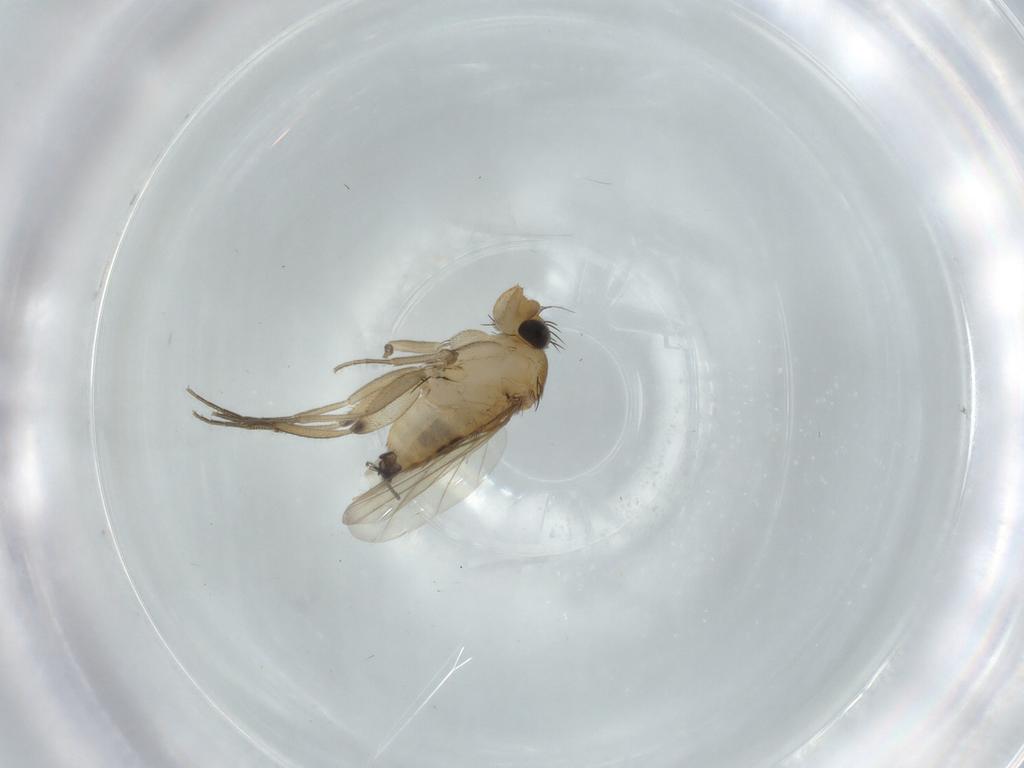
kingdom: Animalia
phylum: Arthropoda
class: Insecta
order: Diptera
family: Phoridae
